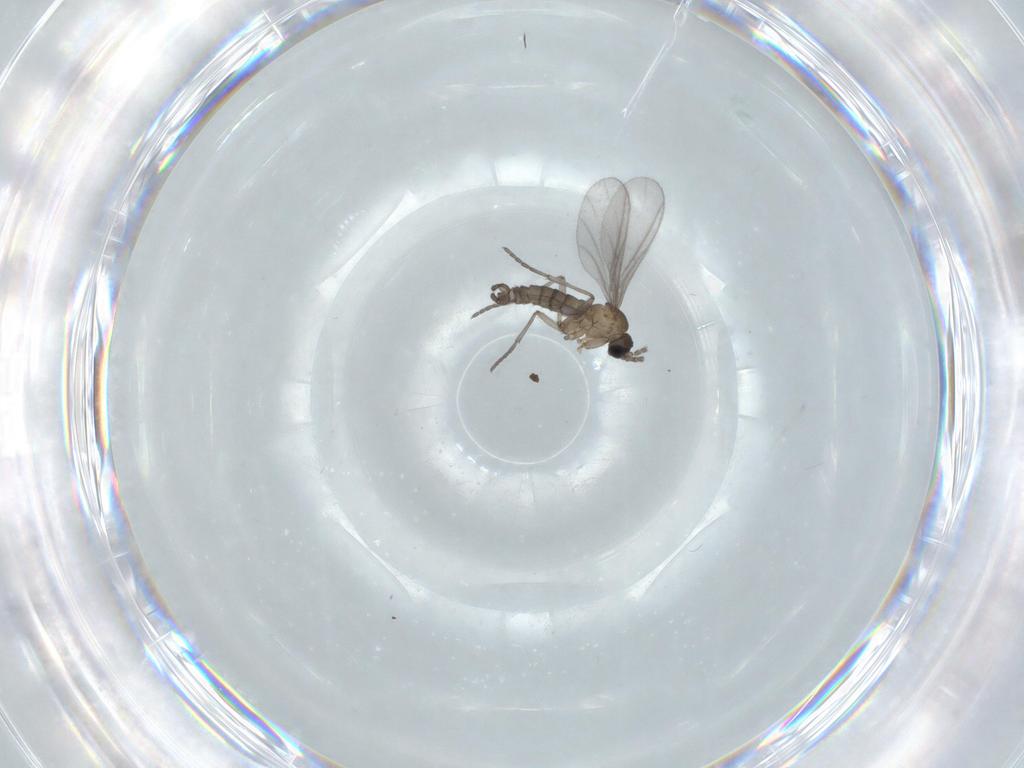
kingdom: Animalia
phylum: Arthropoda
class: Insecta
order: Diptera
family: Sciaridae
